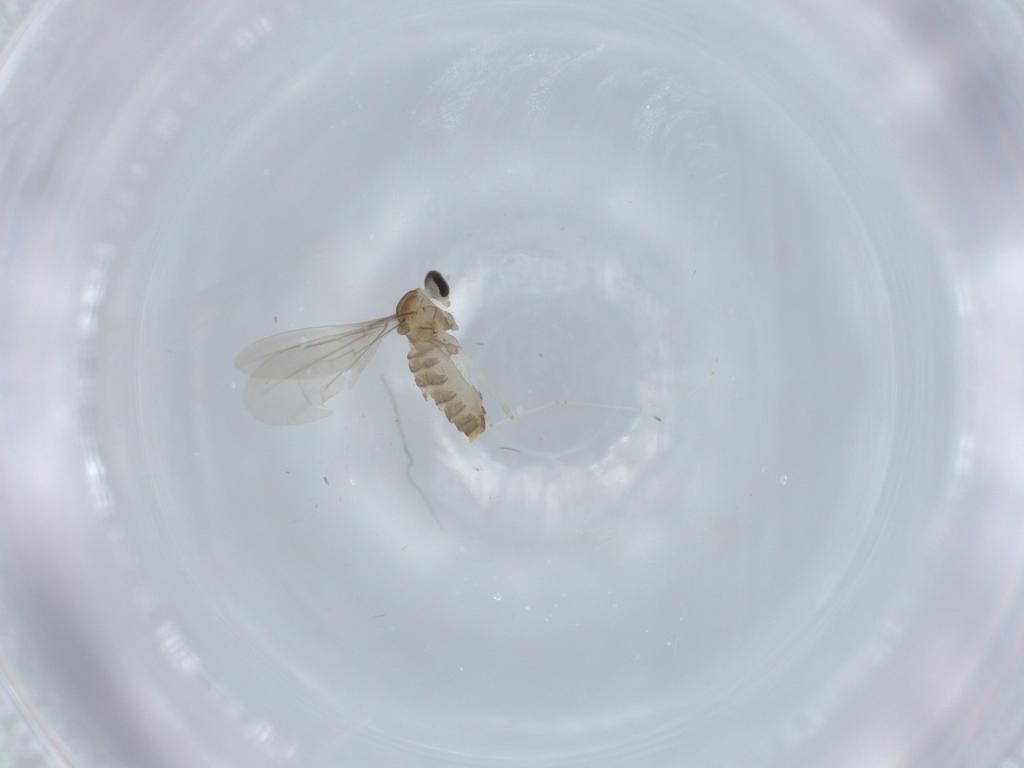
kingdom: Animalia
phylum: Arthropoda
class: Insecta
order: Diptera
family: Cecidomyiidae
